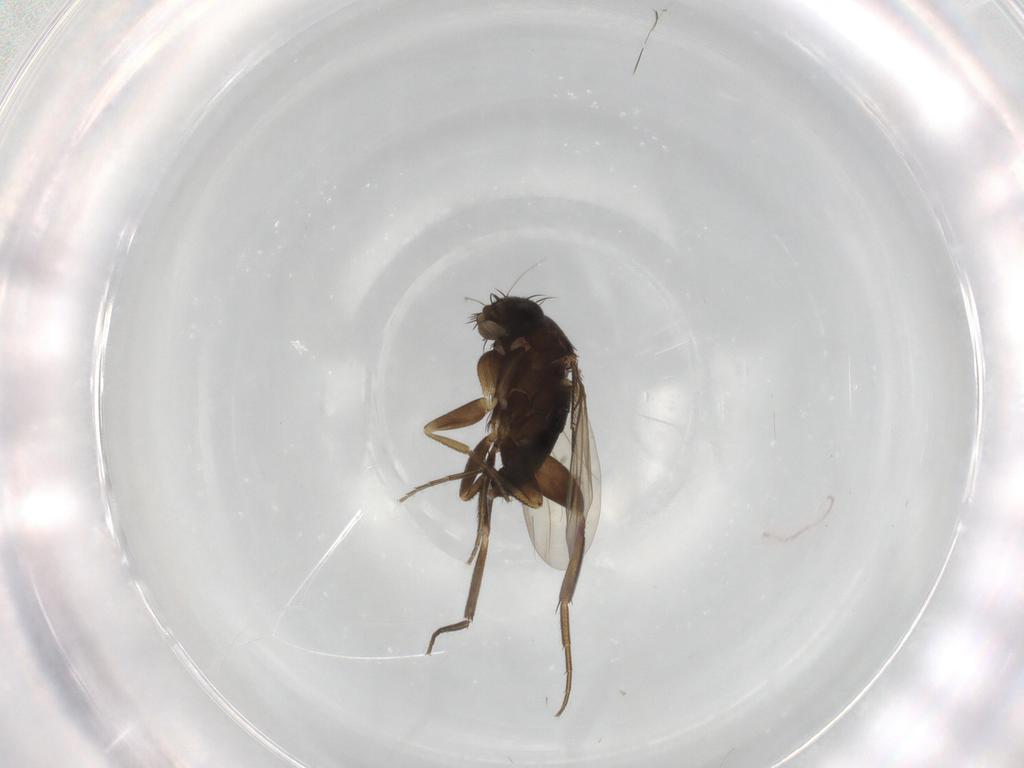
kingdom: Animalia
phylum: Arthropoda
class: Insecta
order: Diptera
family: Phoridae
